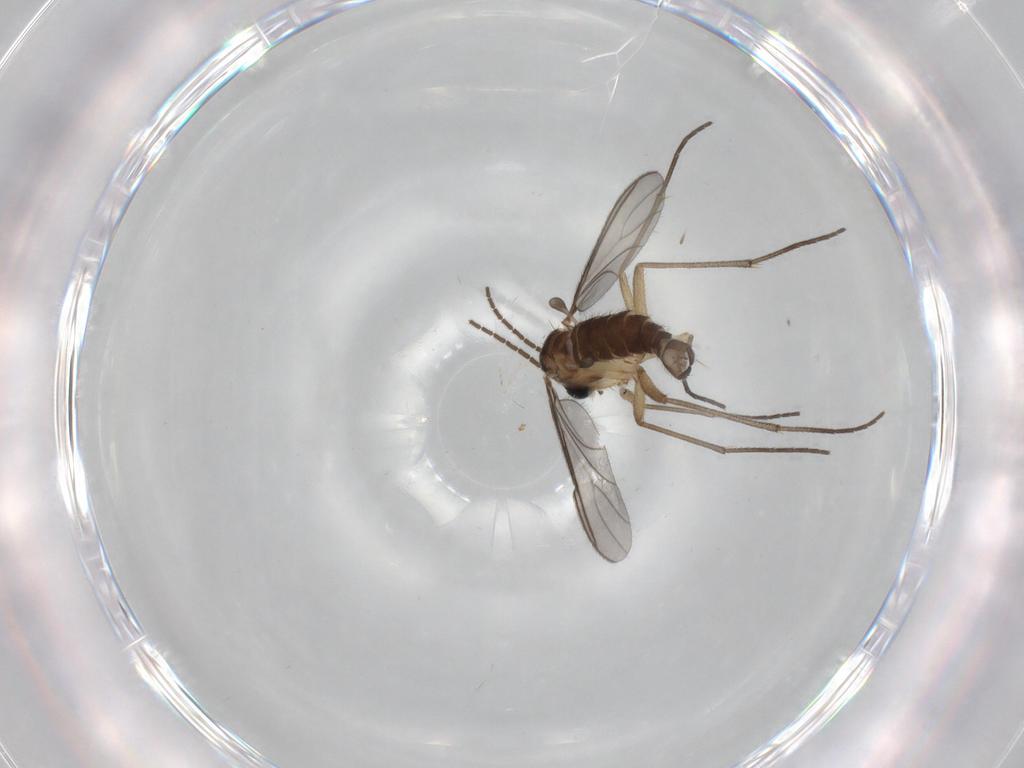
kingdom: Animalia
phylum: Arthropoda
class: Insecta
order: Diptera
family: Sciaridae
